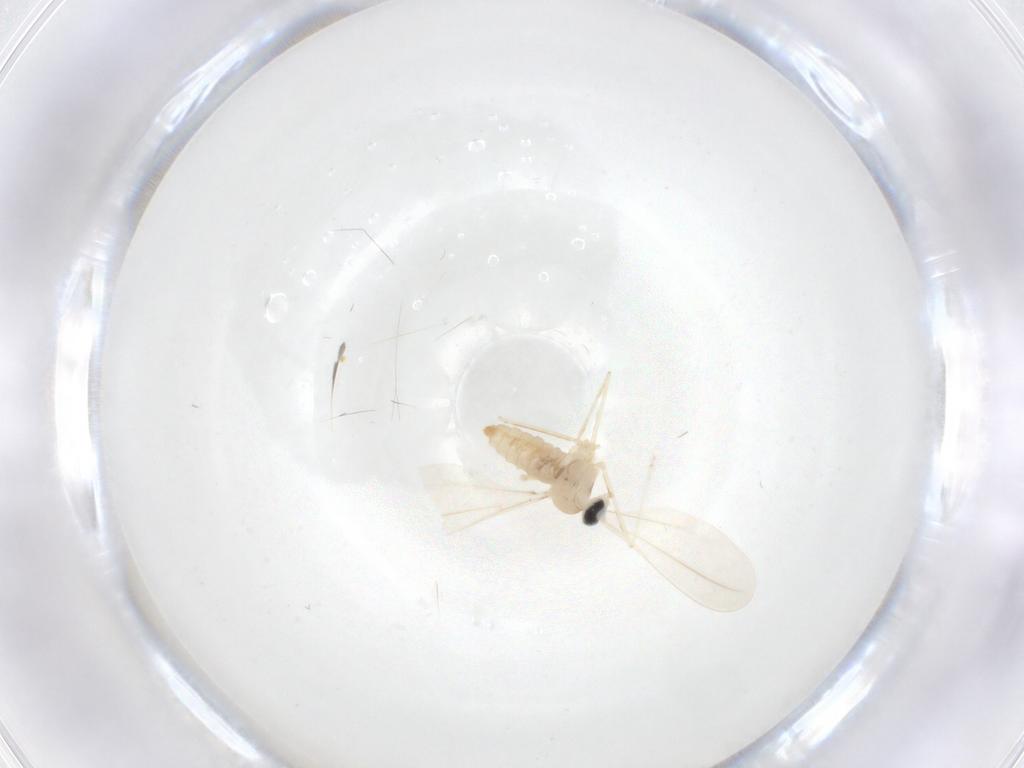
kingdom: Animalia
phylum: Arthropoda
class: Insecta
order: Diptera
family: Cecidomyiidae
